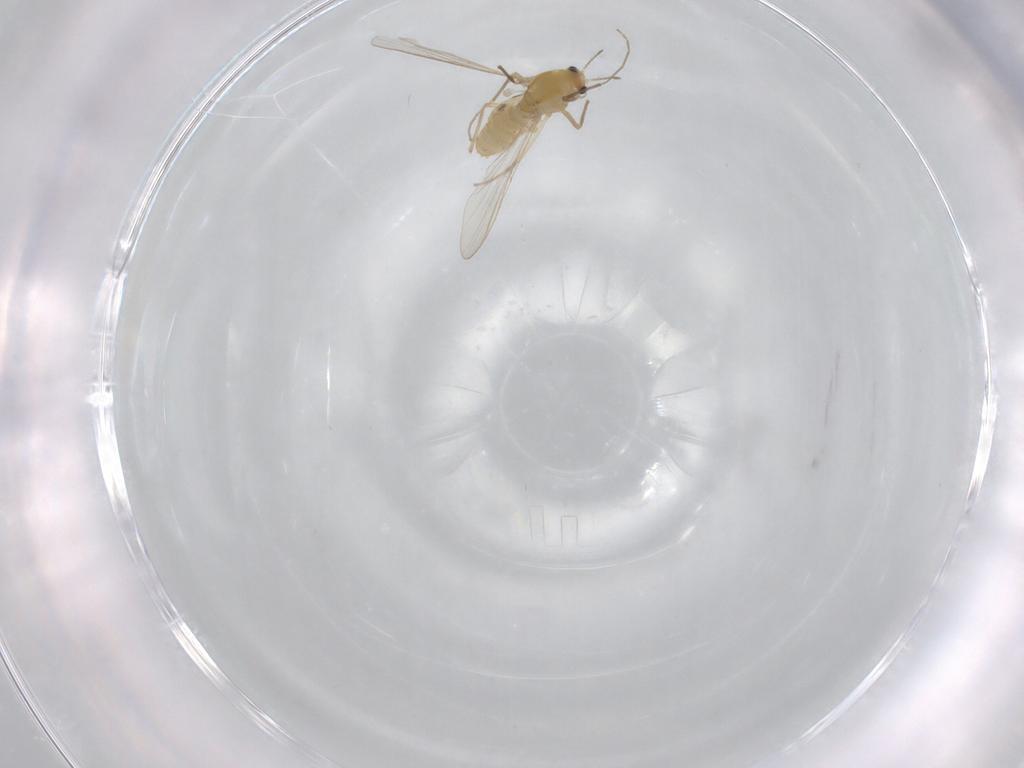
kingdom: Animalia
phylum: Arthropoda
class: Insecta
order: Diptera
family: Chironomidae
